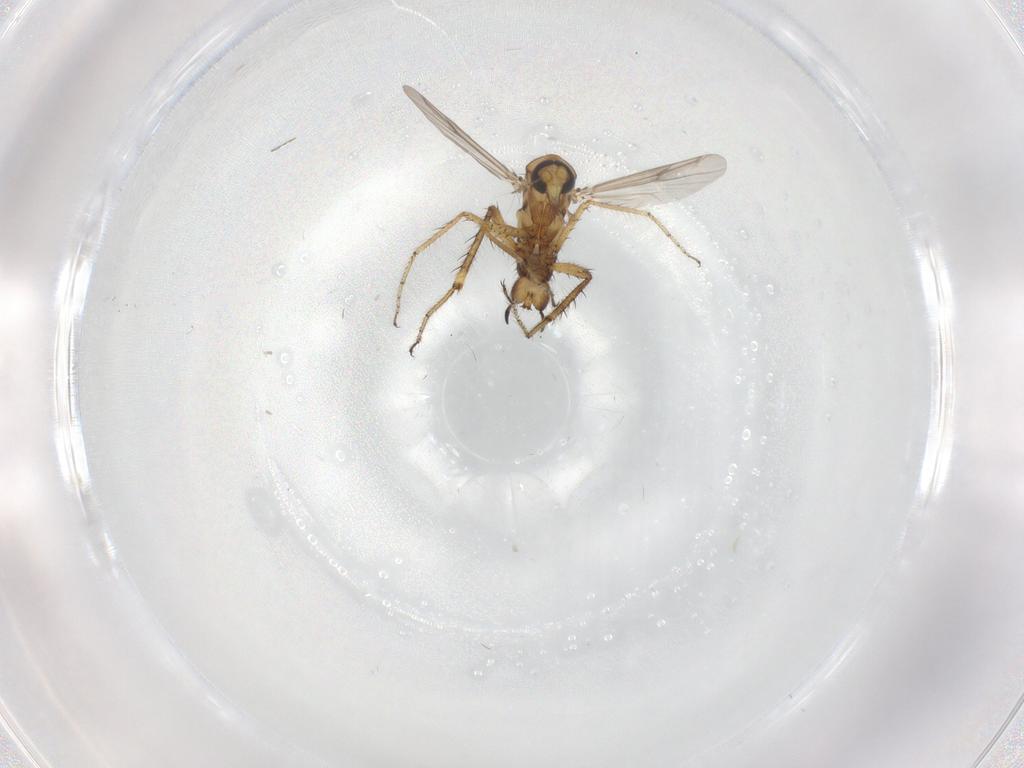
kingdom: Animalia
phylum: Arthropoda
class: Insecta
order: Diptera
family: Ceratopogonidae
